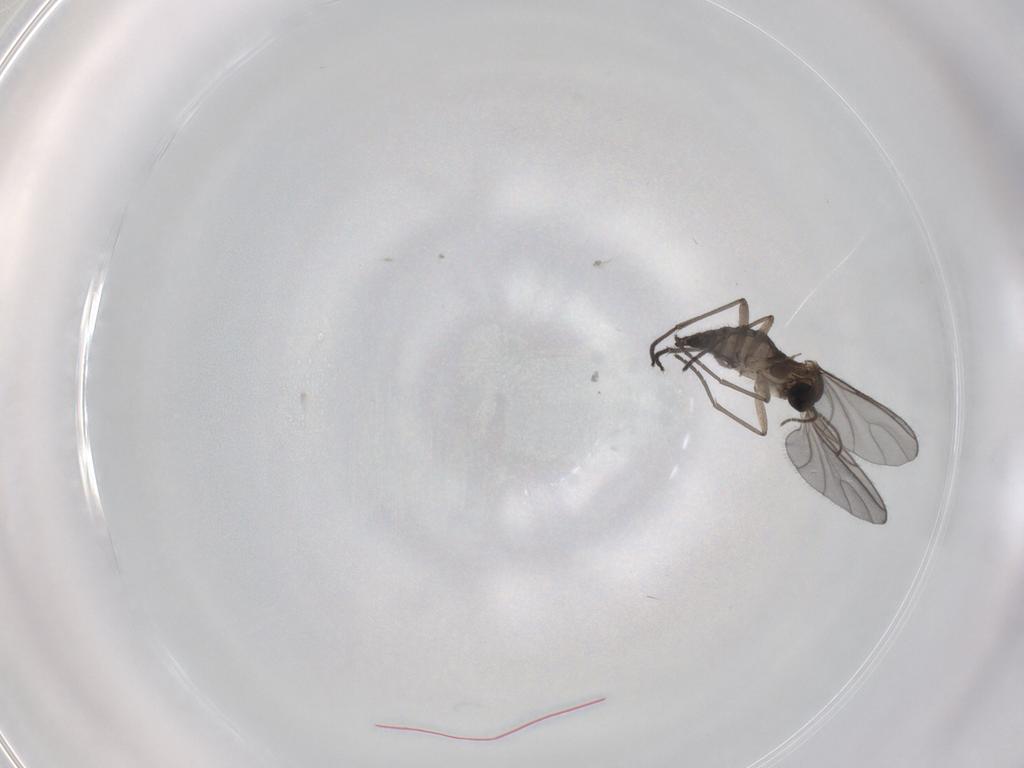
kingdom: Animalia
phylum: Arthropoda
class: Insecta
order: Diptera
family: Sciaridae
